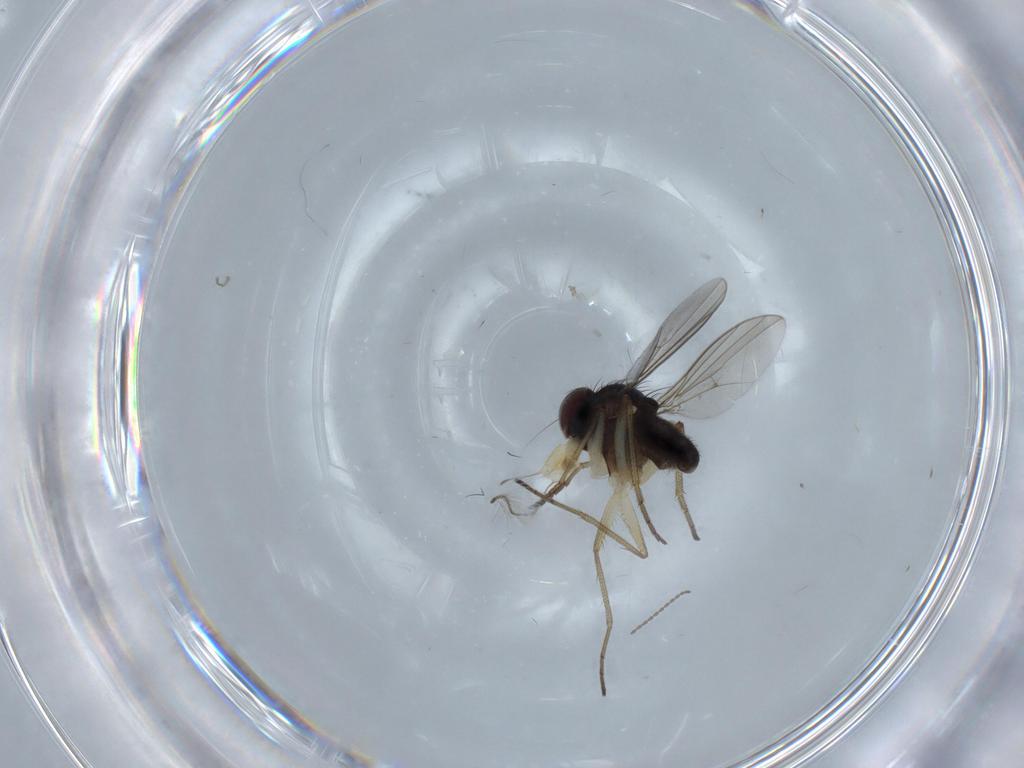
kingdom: Animalia
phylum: Arthropoda
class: Insecta
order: Diptera
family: Dolichopodidae
